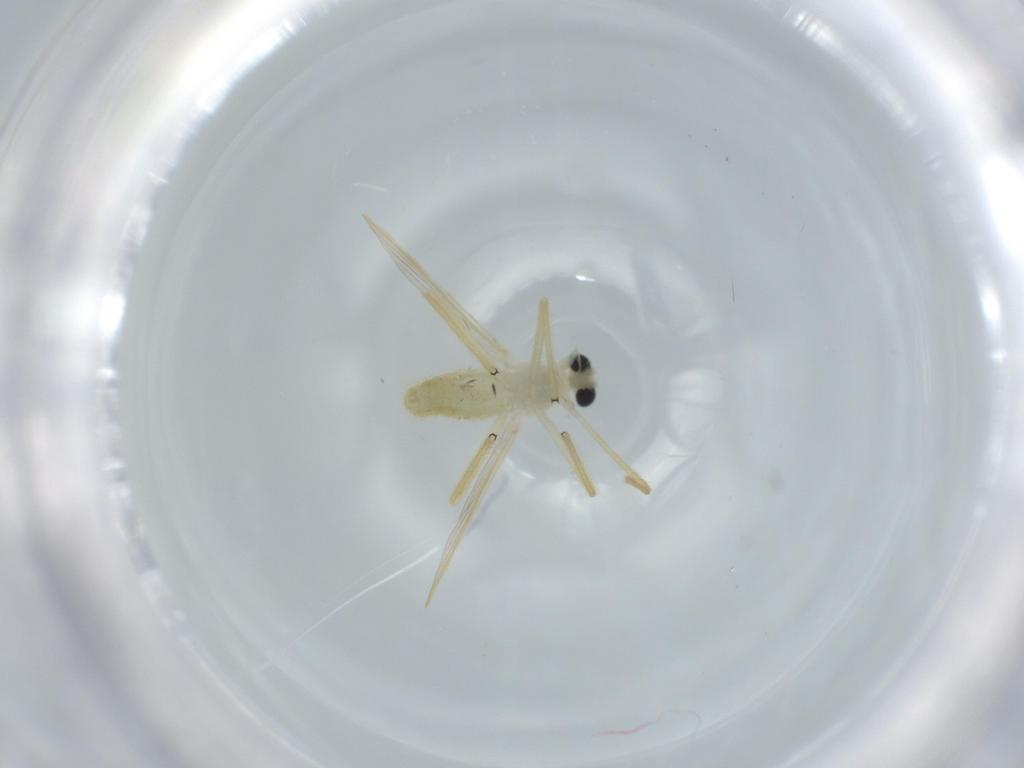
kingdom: Animalia
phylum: Arthropoda
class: Insecta
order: Diptera
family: Chironomidae
